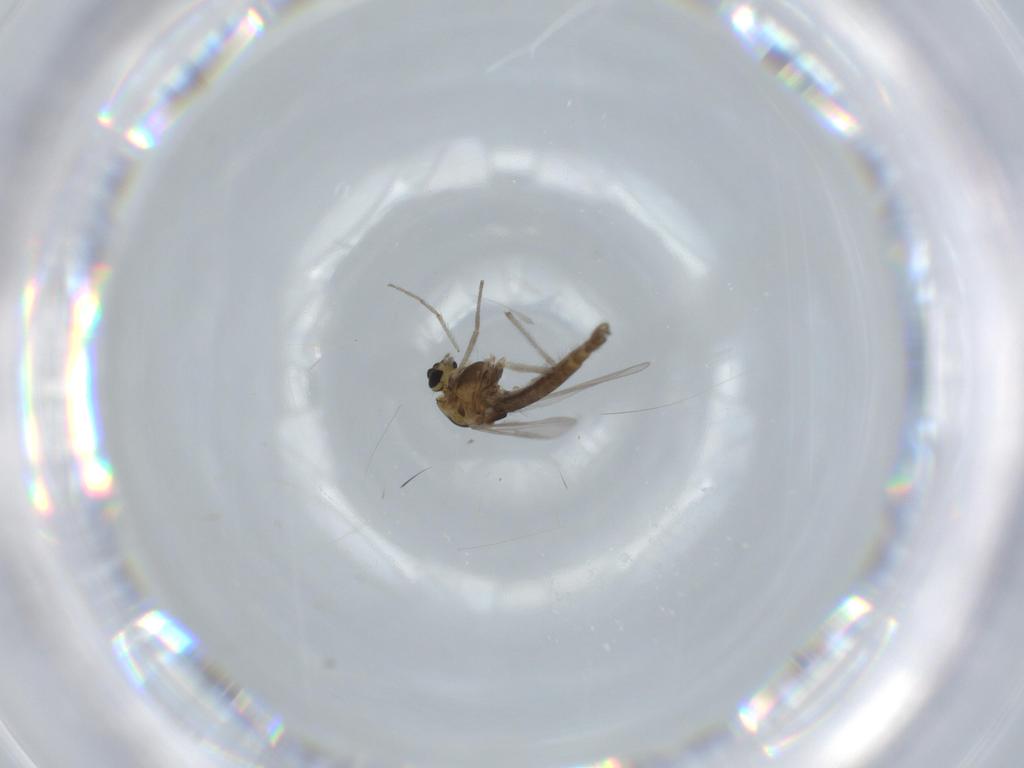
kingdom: Animalia
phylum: Arthropoda
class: Insecta
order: Diptera
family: Chironomidae
